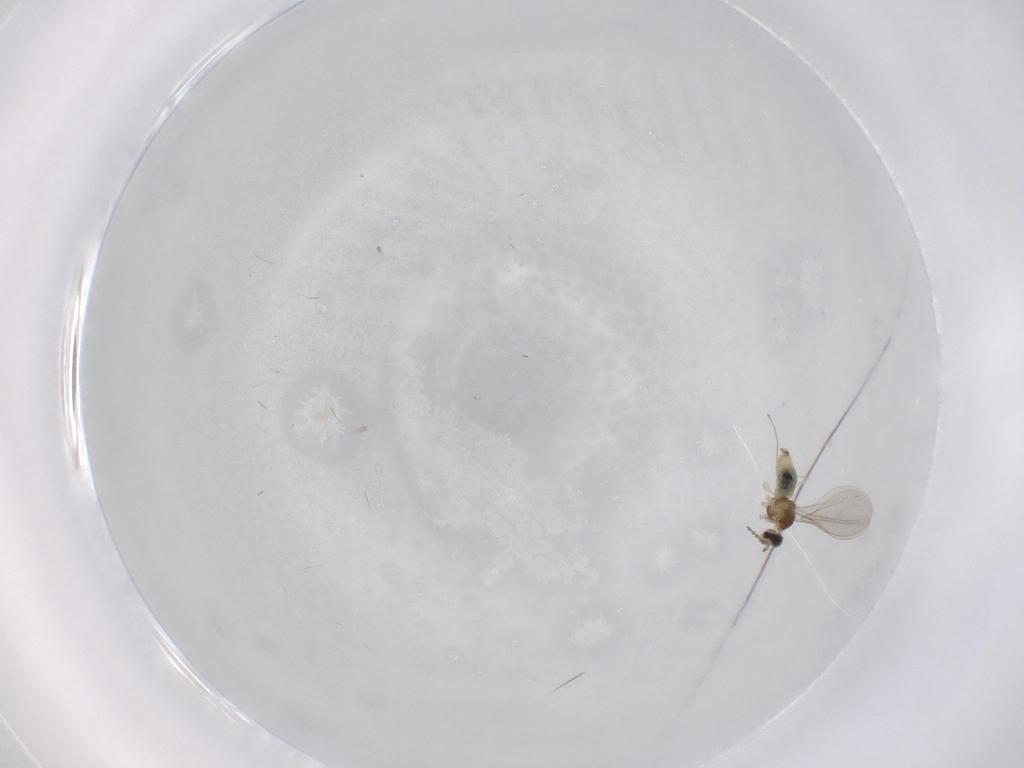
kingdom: Animalia
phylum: Arthropoda
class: Insecta
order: Diptera
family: Cecidomyiidae
